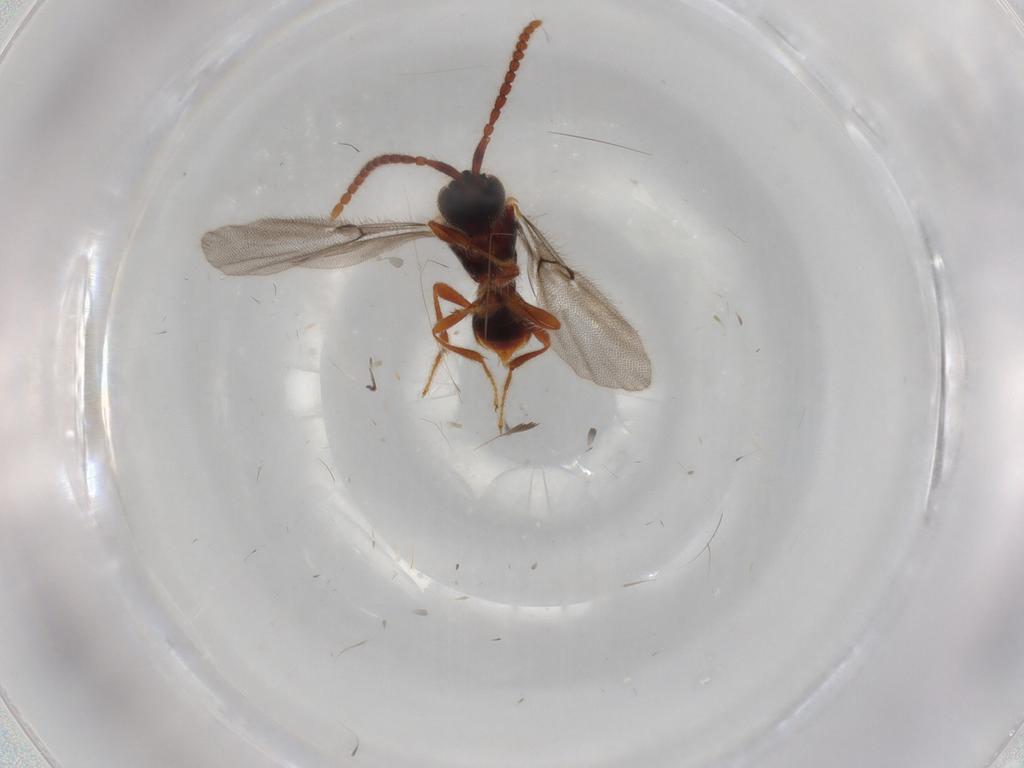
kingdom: Animalia
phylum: Arthropoda
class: Insecta
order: Hymenoptera
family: Diapriidae
